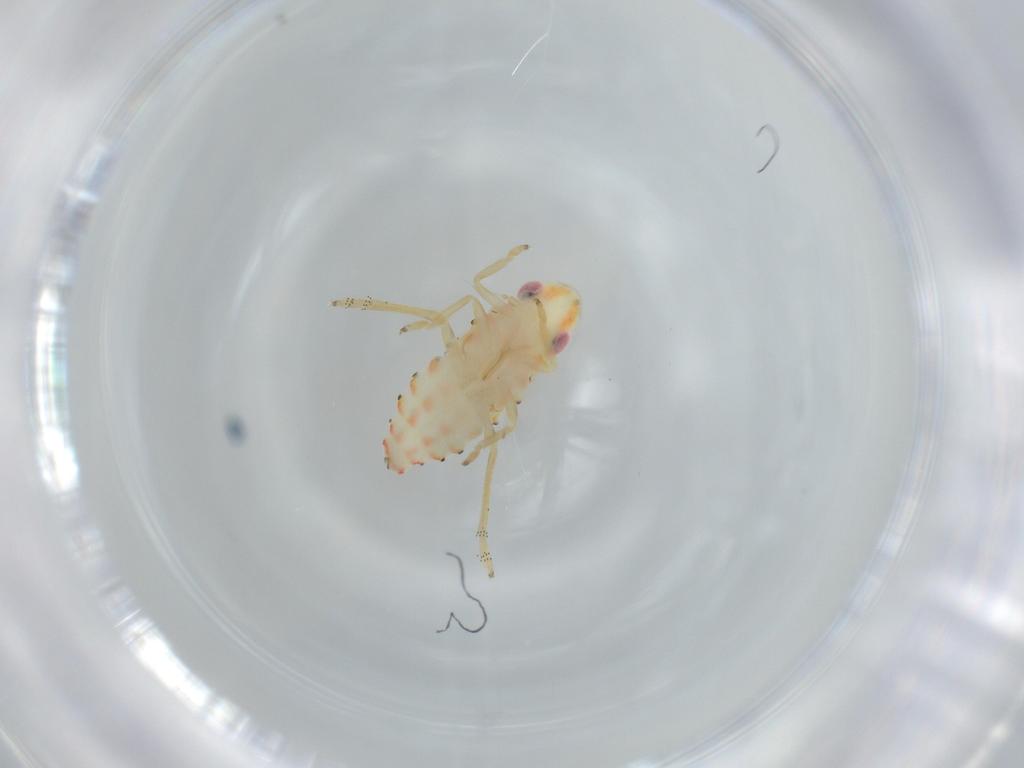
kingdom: Animalia
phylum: Arthropoda
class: Insecta
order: Hemiptera
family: Tropiduchidae
